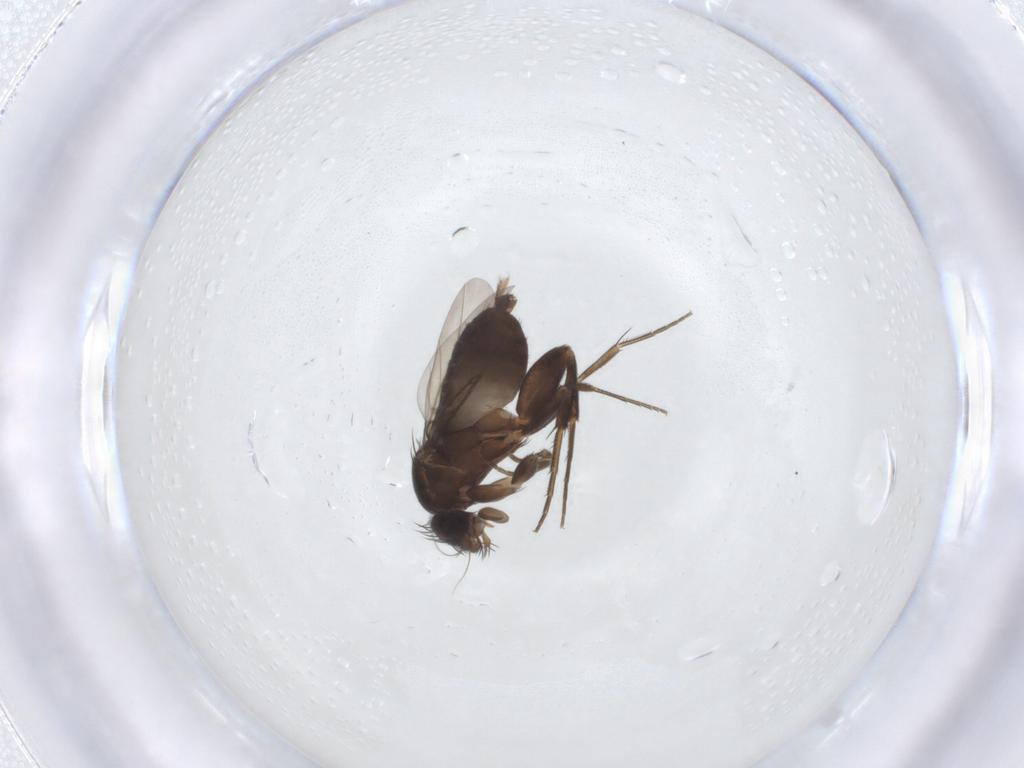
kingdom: Animalia
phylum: Arthropoda
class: Insecta
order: Diptera
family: Phoridae
